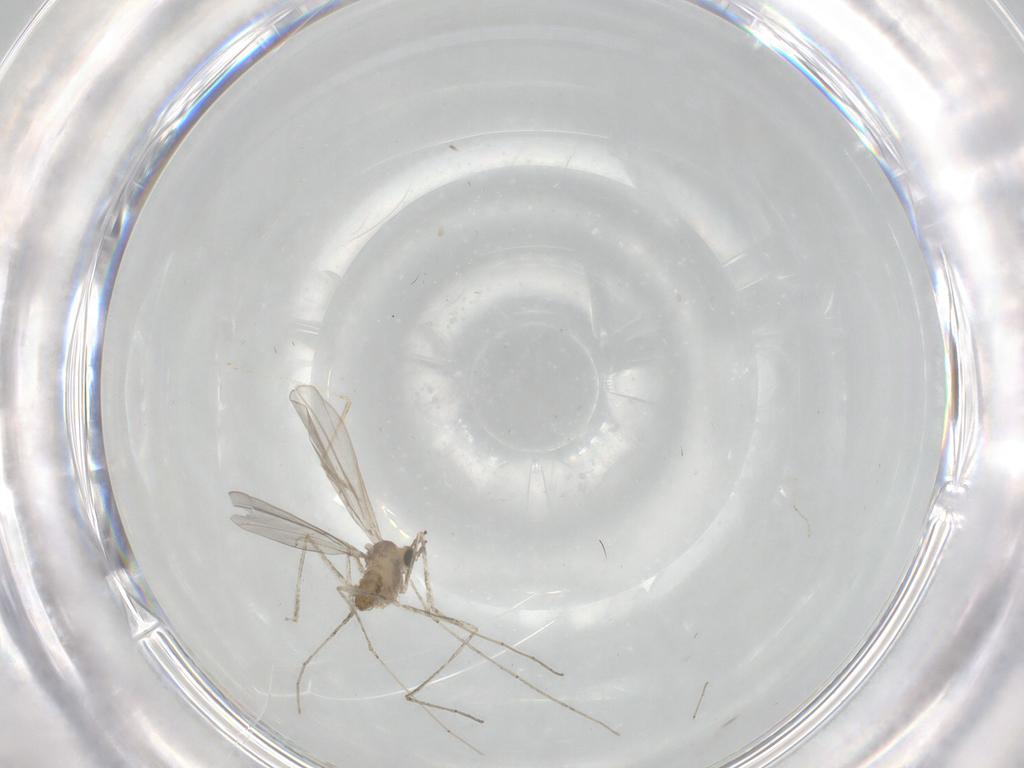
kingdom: Animalia
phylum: Arthropoda
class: Insecta
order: Diptera
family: Cecidomyiidae
